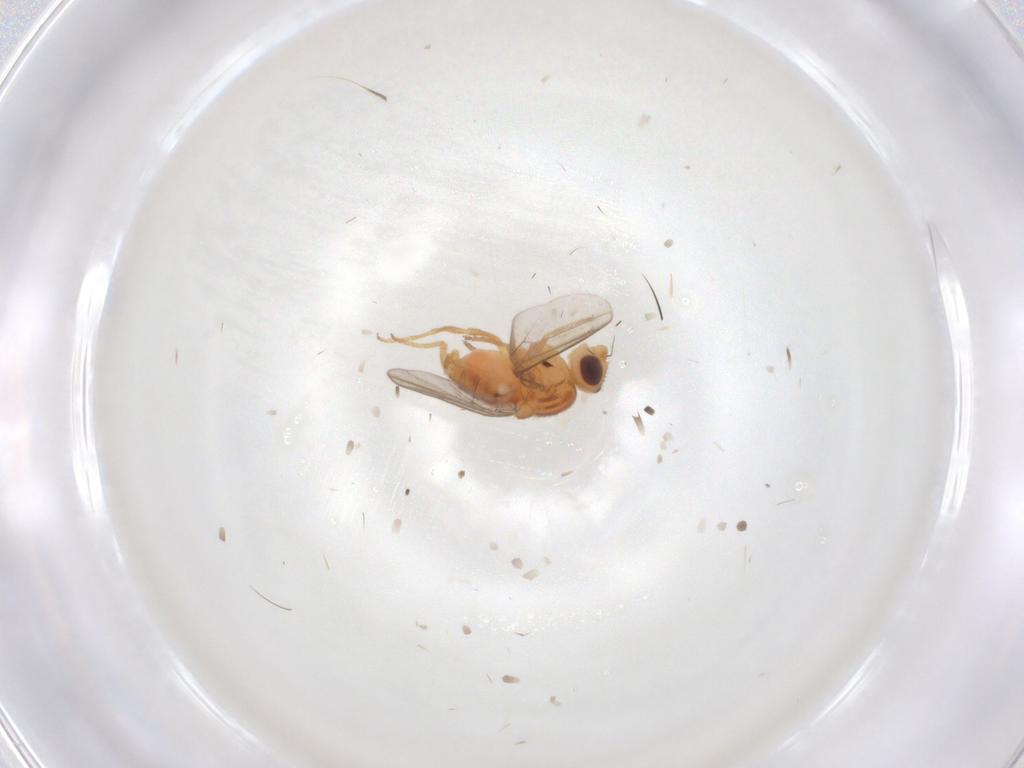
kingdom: Animalia
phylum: Arthropoda
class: Insecta
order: Diptera
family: Chloropidae
